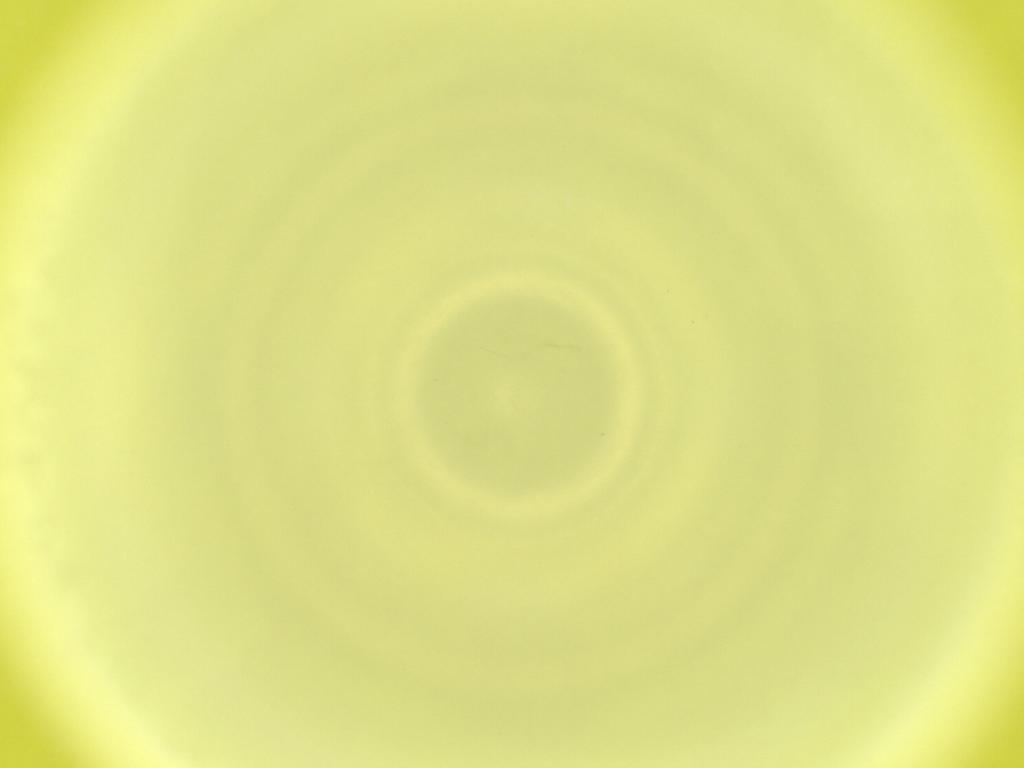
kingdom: Animalia
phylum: Arthropoda
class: Insecta
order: Diptera
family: Cecidomyiidae
